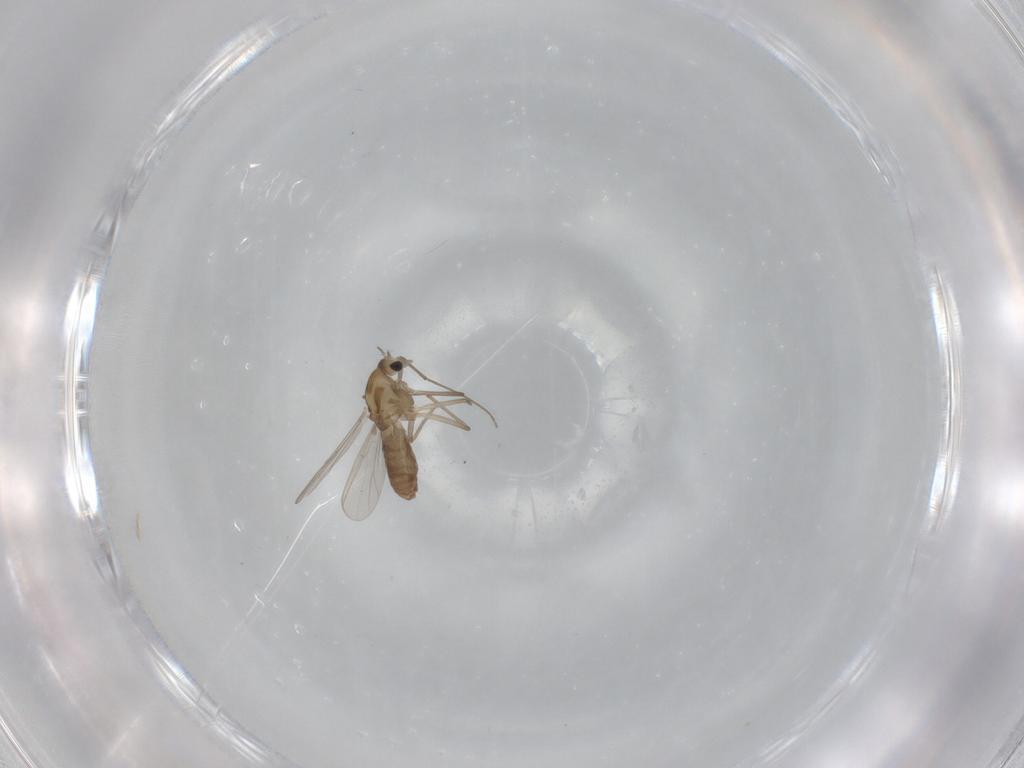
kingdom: Animalia
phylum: Arthropoda
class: Insecta
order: Diptera
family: Chironomidae
